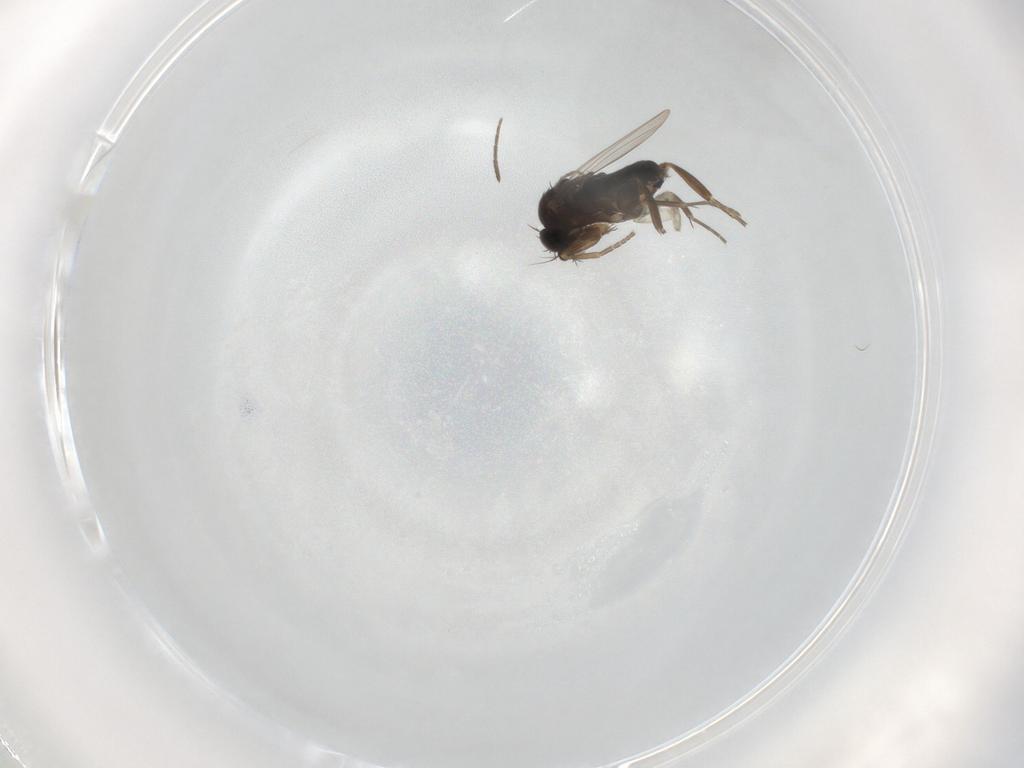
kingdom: Animalia
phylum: Arthropoda
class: Insecta
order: Diptera
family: Phoridae
